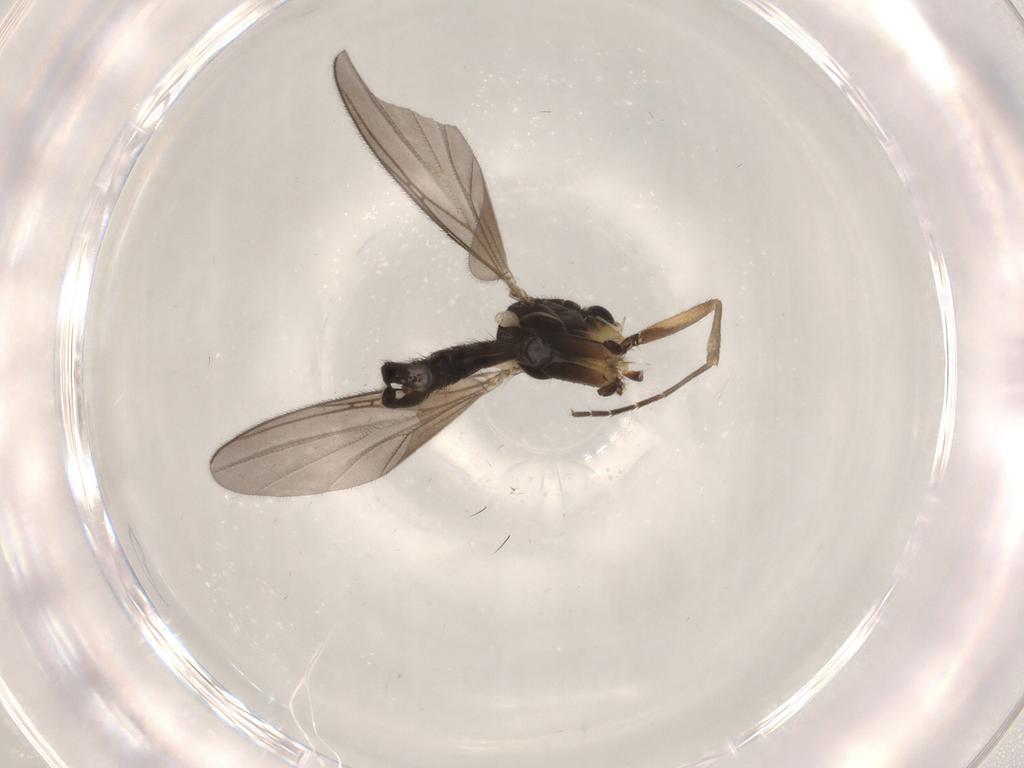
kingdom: Animalia
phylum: Arthropoda
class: Insecta
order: Diptera
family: Mycetophilidae
